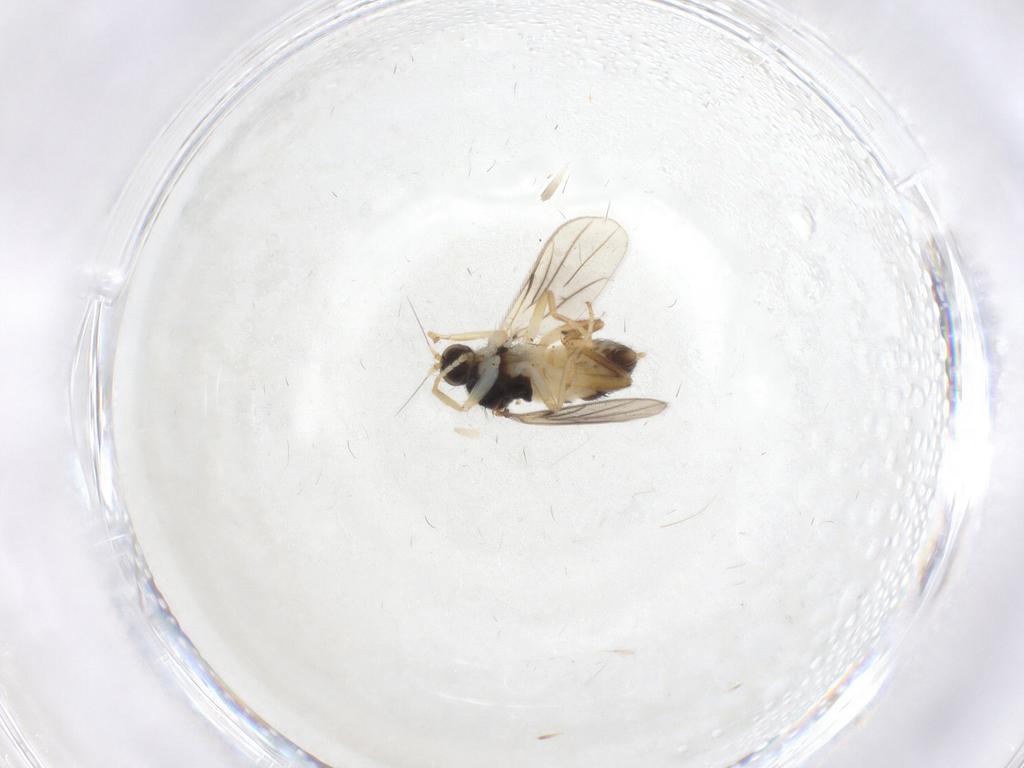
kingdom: Animalia
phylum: Arthropoda
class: Insecta
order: Diptera
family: Hybotidae
